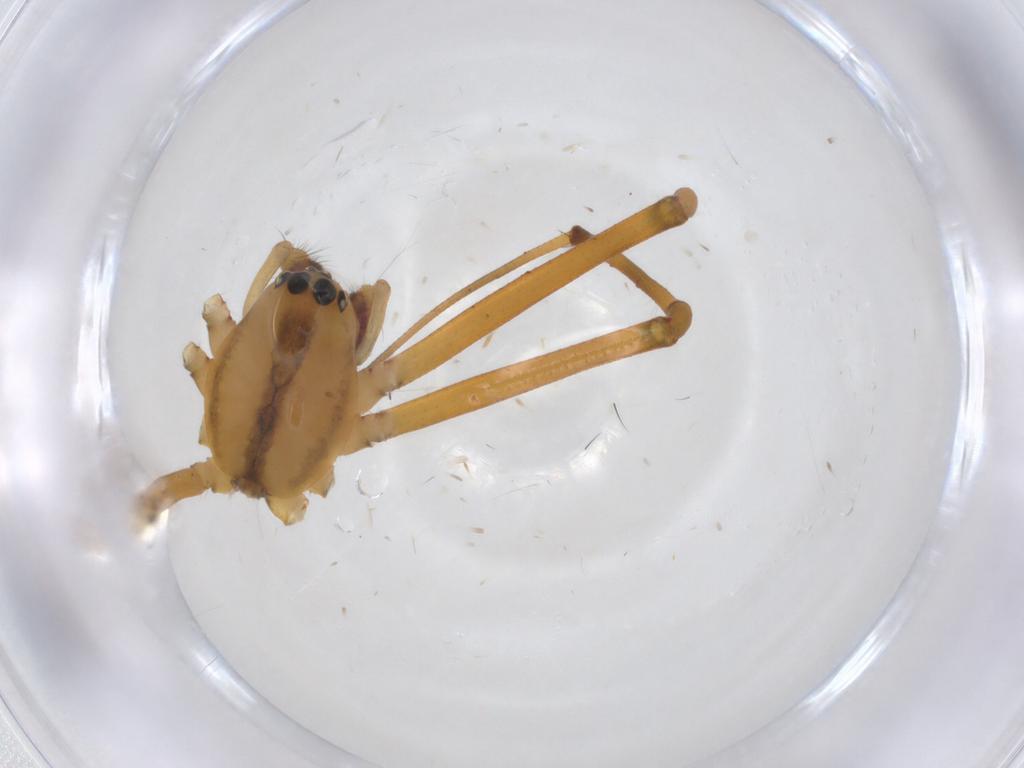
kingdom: Animalia
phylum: Arthropoda
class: Arachnida
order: Araneae
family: Linyphiidae
